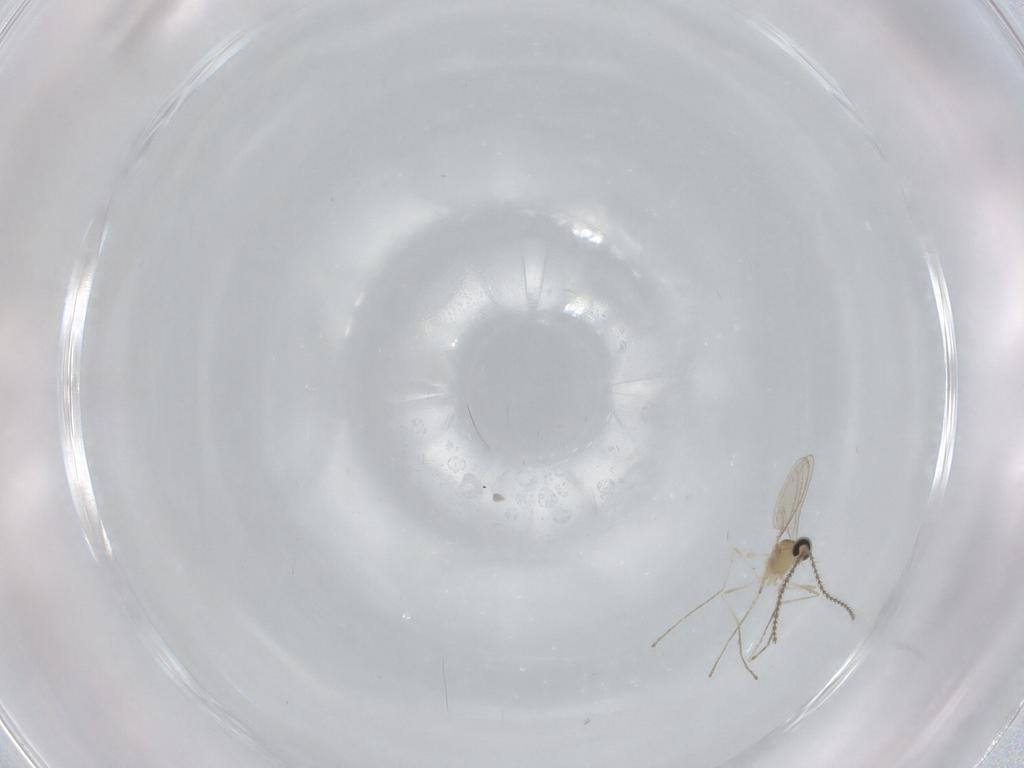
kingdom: Animalia
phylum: Arthropoda
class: Insecta
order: Diptera
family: Cecidomyiidae
